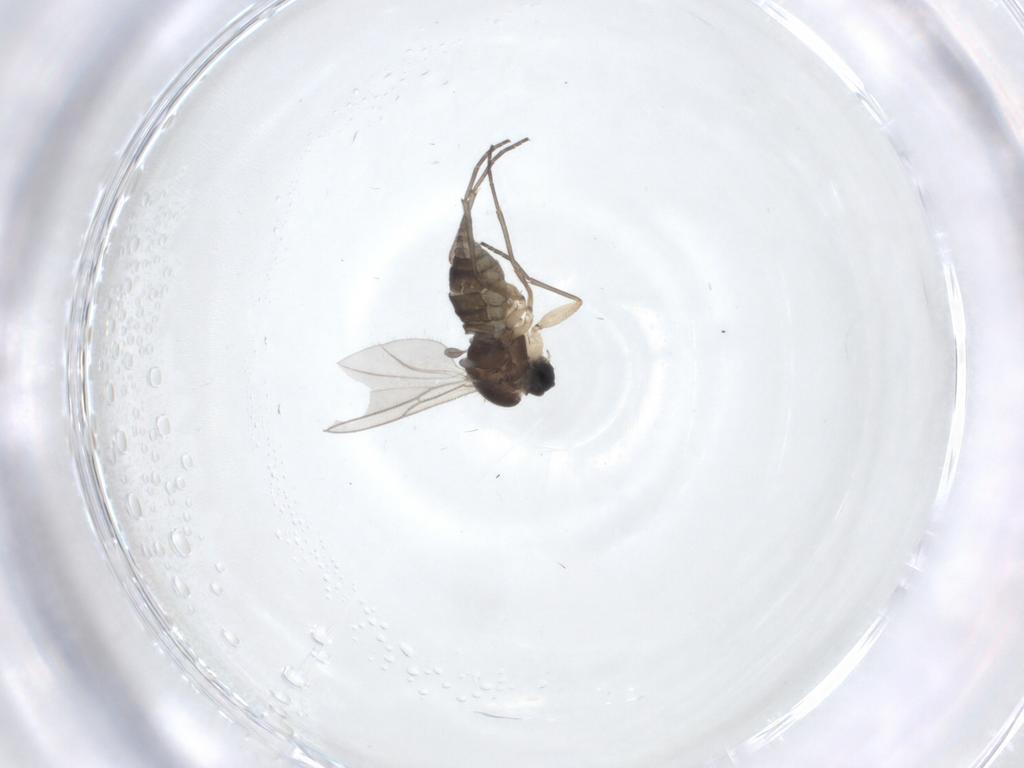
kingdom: Animalia
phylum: Arthropoda
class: Insecta
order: Diptera
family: Sciaridae
